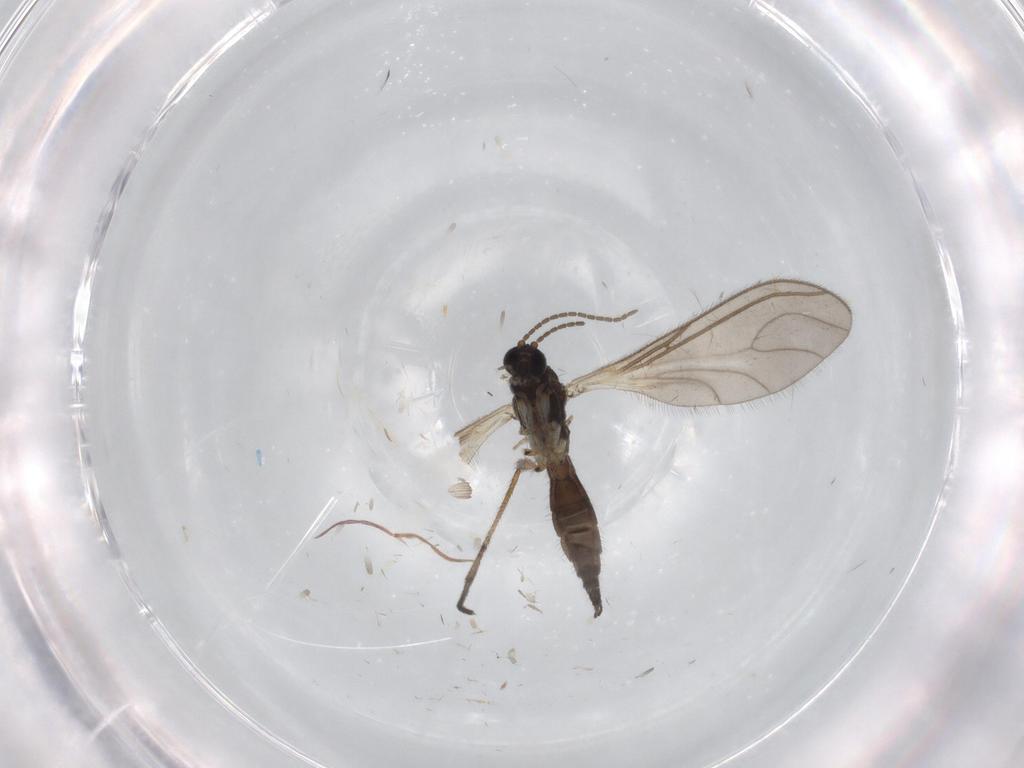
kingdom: Animalia
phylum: Arthropoda
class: Insecta
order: Diptera
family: Sciaridae
